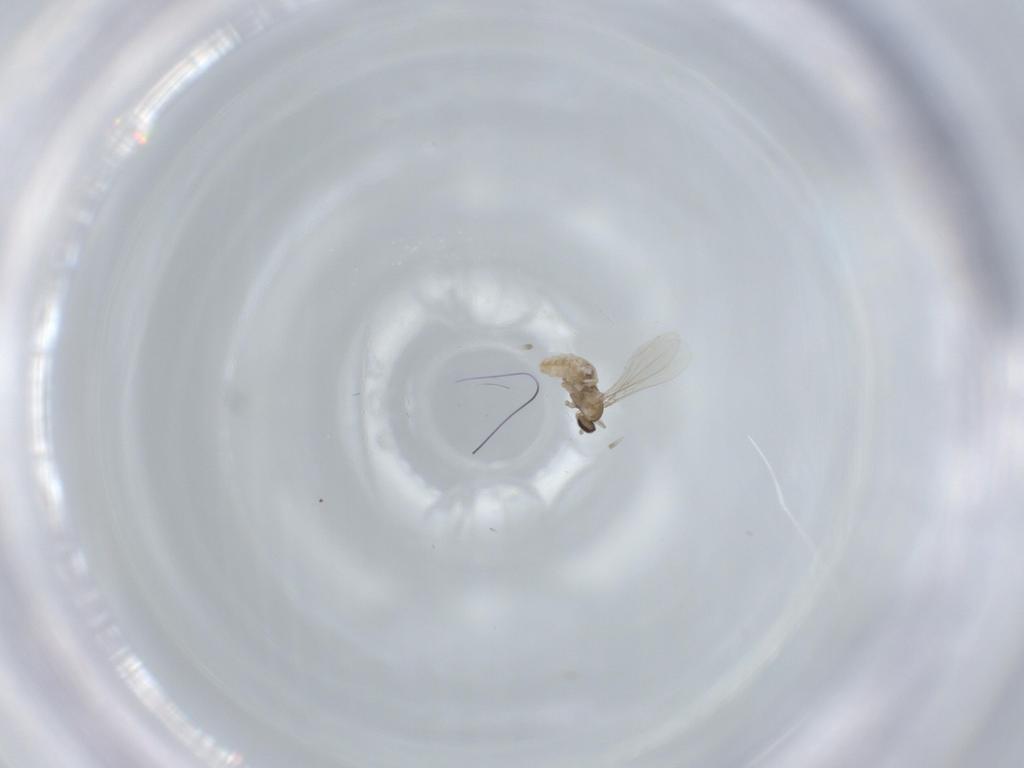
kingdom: Animalia
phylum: Arthropoda
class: Insecta
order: Diptera
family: Cecidomyiidae
